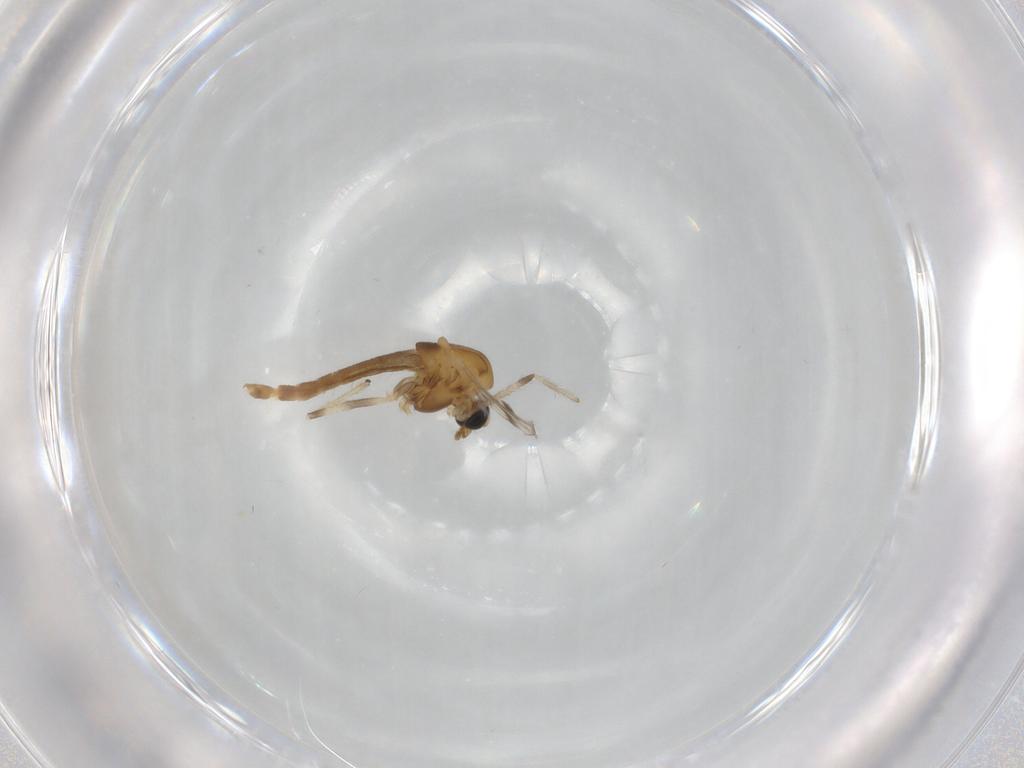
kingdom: Animalia
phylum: Arthropoda
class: Insecta
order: Diptera
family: Chironomidae
